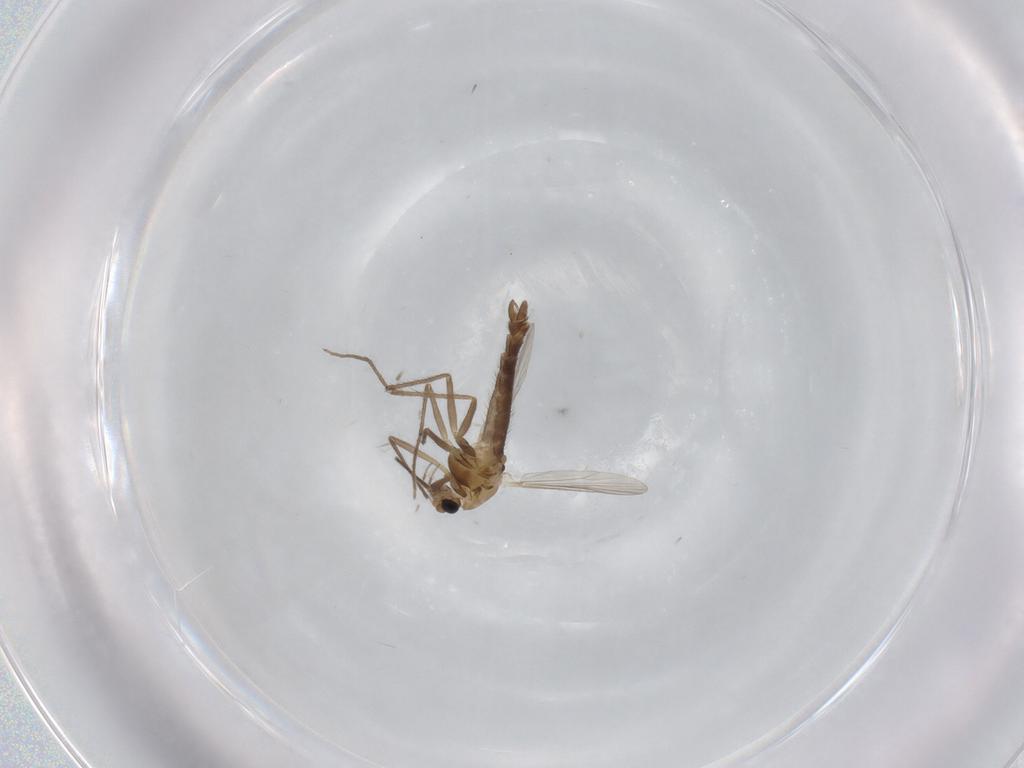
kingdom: Animalia
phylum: Arthropoda
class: Insecta
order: Diptera
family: Chironomidae
